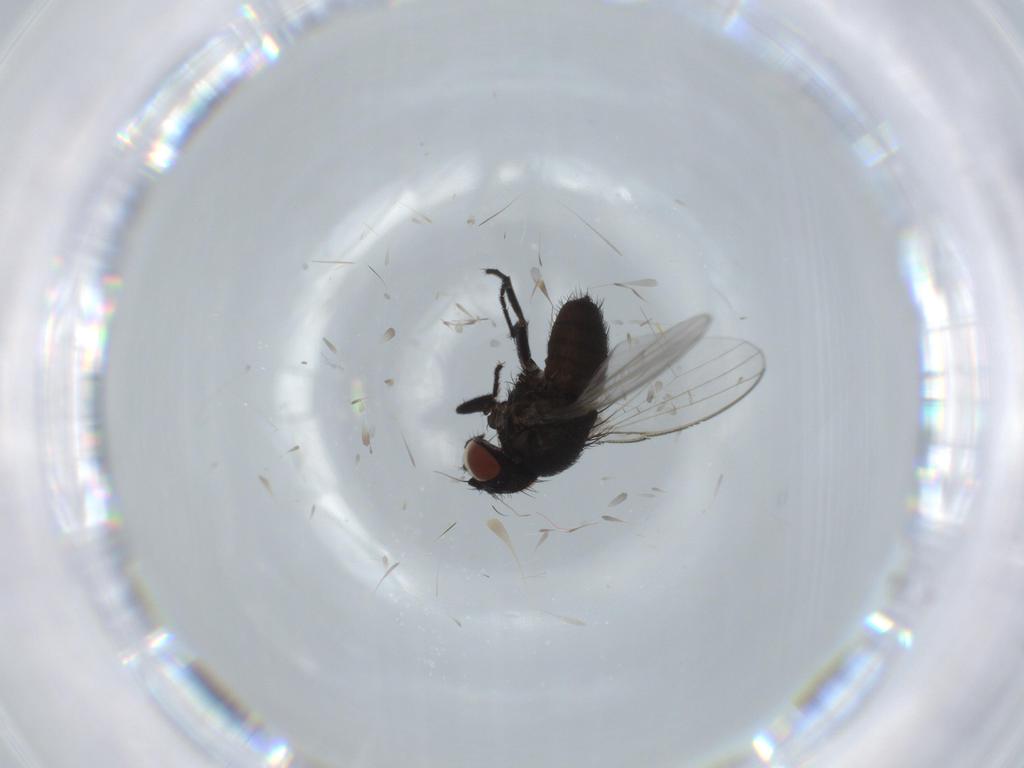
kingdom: Animalia
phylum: Arthropoda
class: Insecta
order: Diptera
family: Milichiidae
